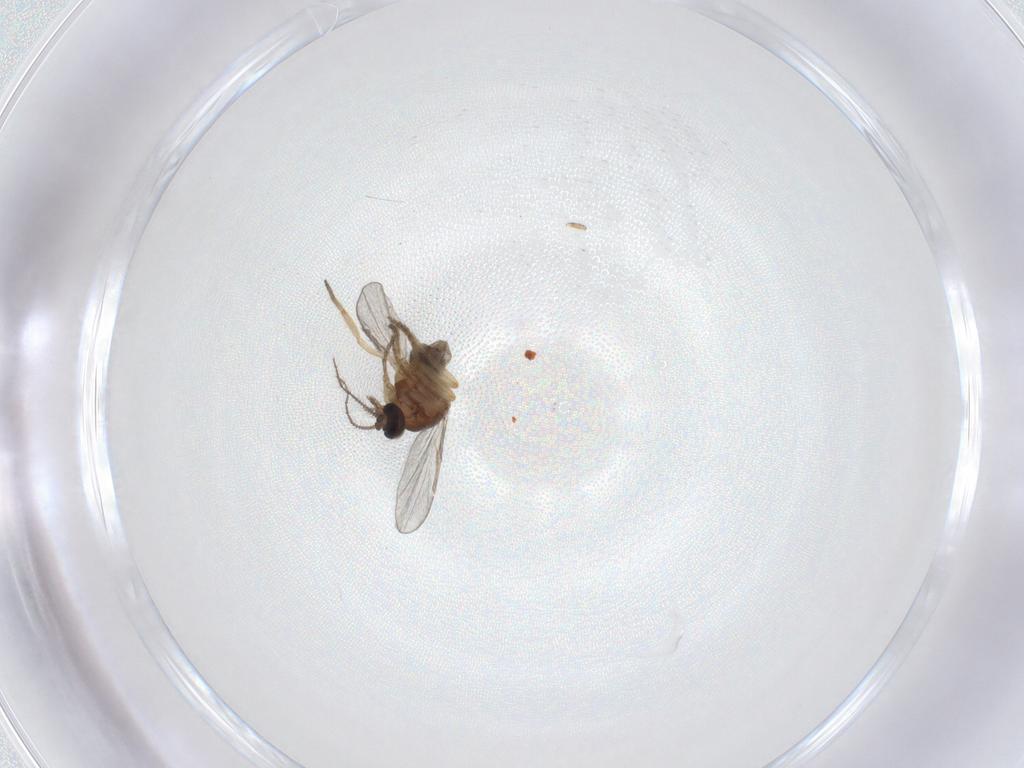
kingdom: Animalia
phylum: Arthropoda
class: Insecta
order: Diptera
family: Ceratopogonidae
